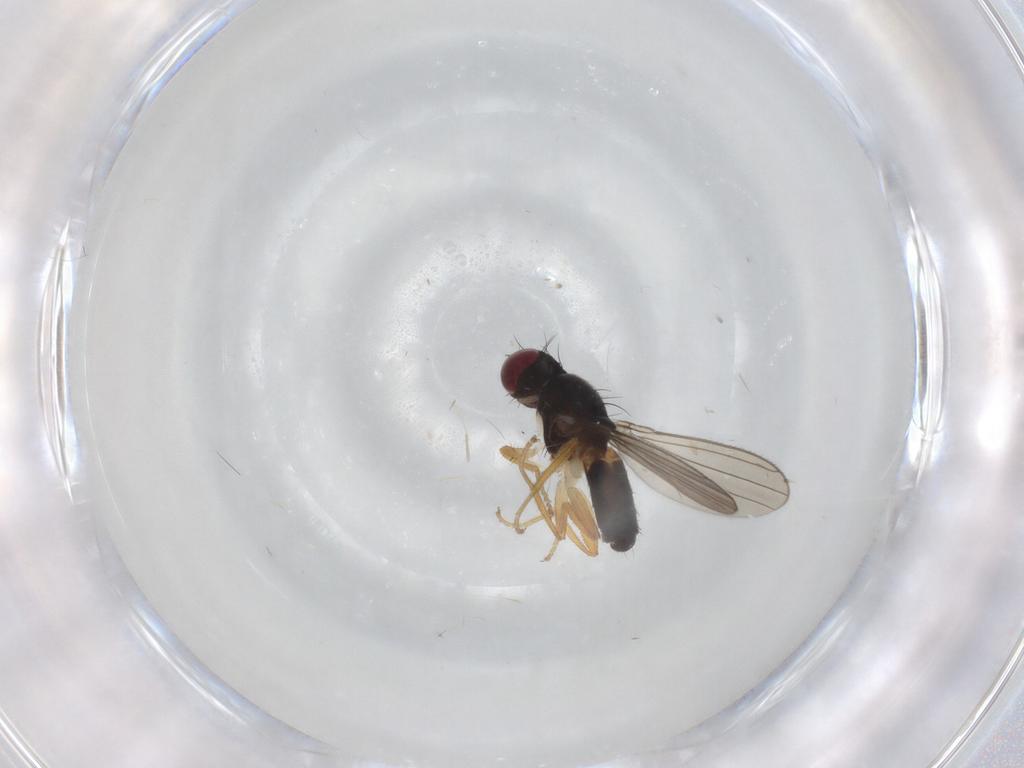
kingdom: Animalia
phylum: Arthropoda
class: Insecta
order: Diptera
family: Anthomyzidae
